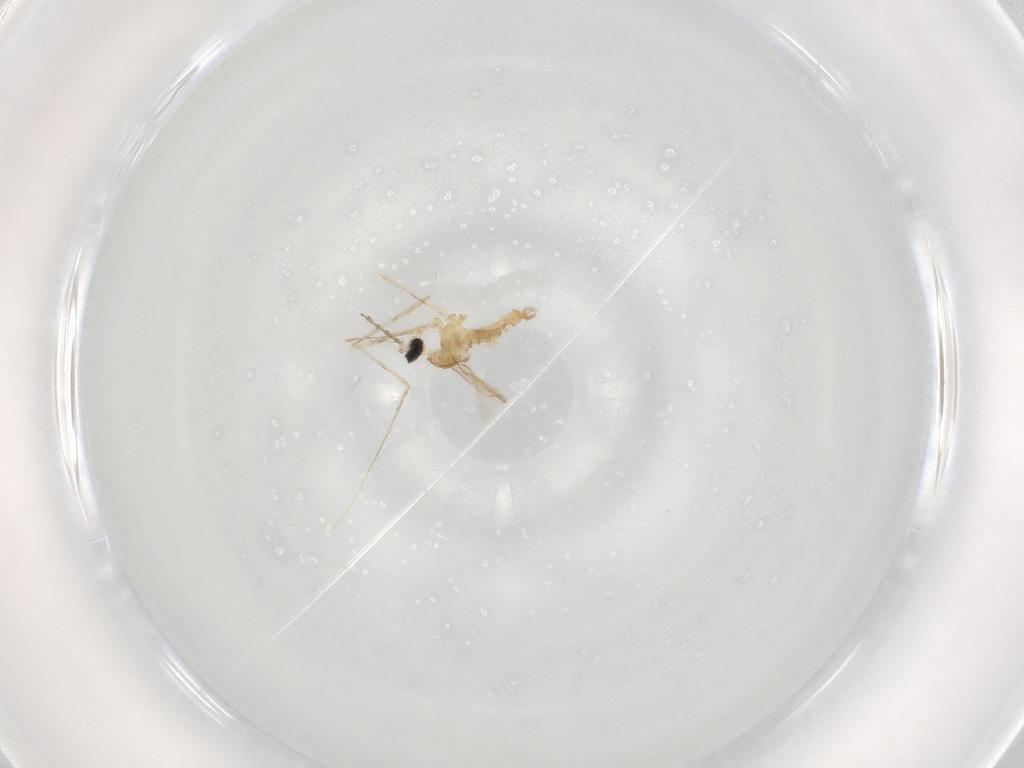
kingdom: Animalia
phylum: Arthropoda
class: Insecta
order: Diptera
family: Cecidomyiidae
